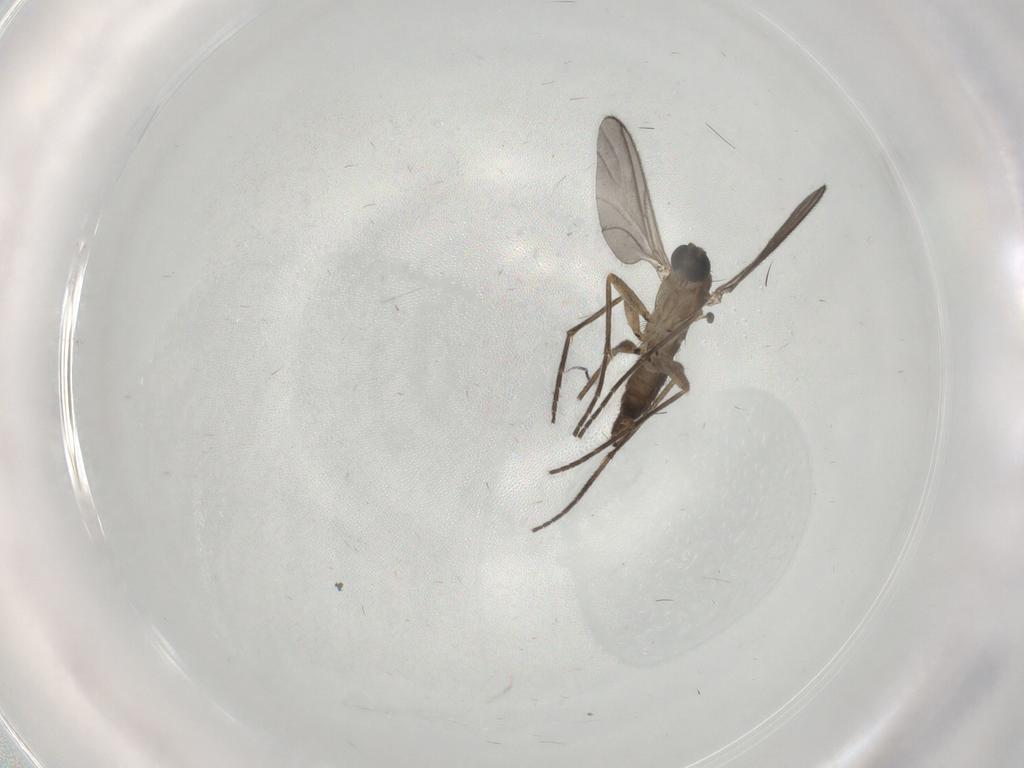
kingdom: Animalia
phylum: Arthropoda
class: Insecta
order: Diptera
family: Sciaridae
